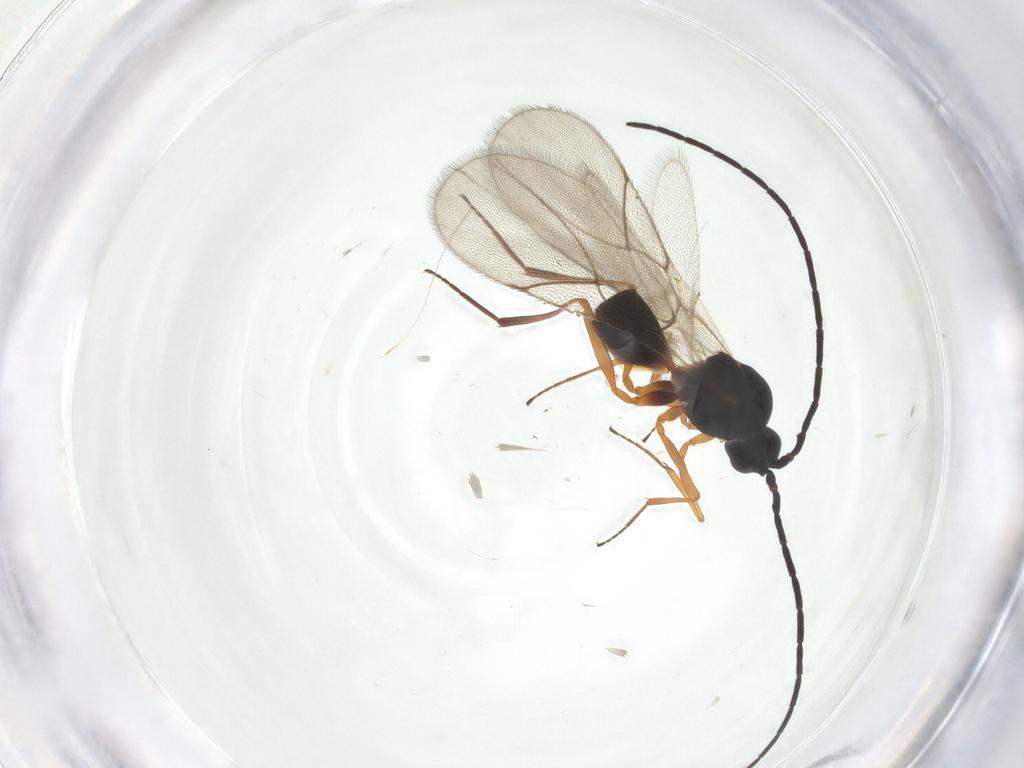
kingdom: Animalia
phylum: Arthropoda
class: Insecta
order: Hymenoptera
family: Figitidae
